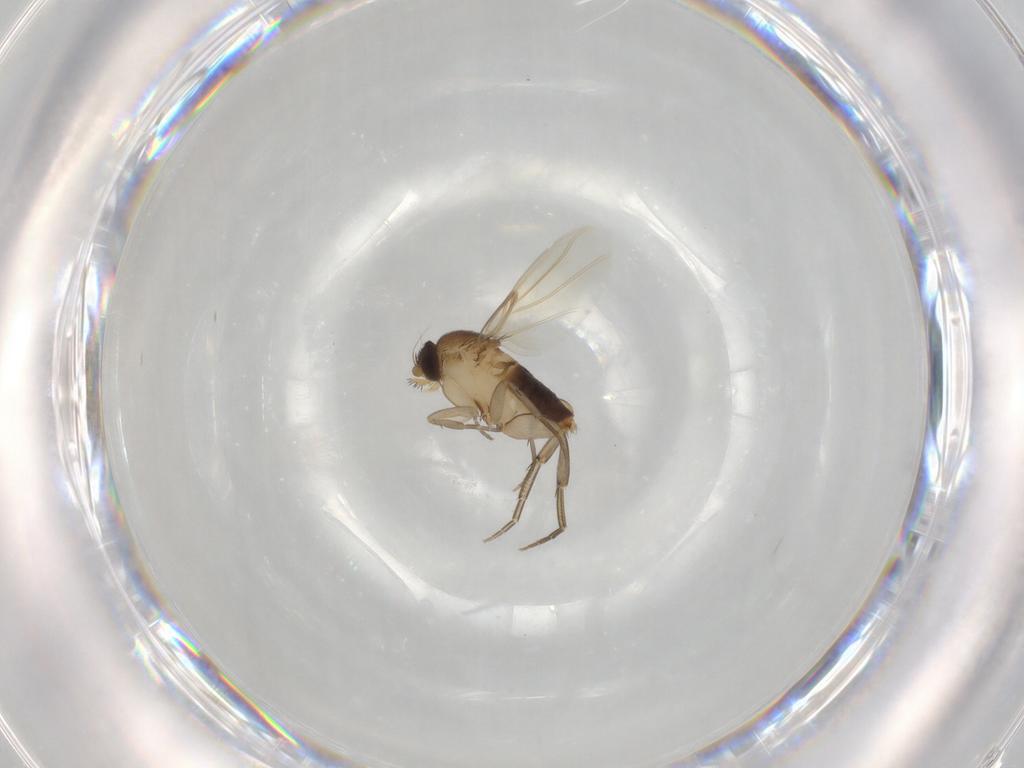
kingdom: Animalia
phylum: Arthropoda
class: Insecta
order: Diptera
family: Phoridae
